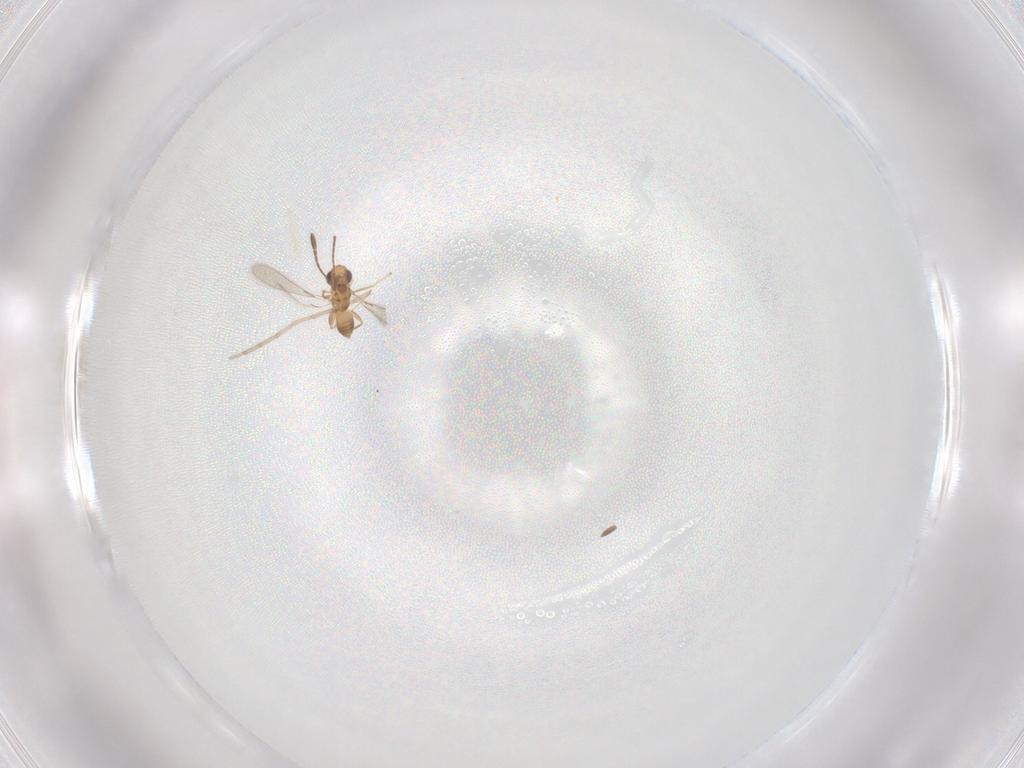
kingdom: Animalia
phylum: Arthropoda
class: Insecta
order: Hymenoptera
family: Mymaridae
